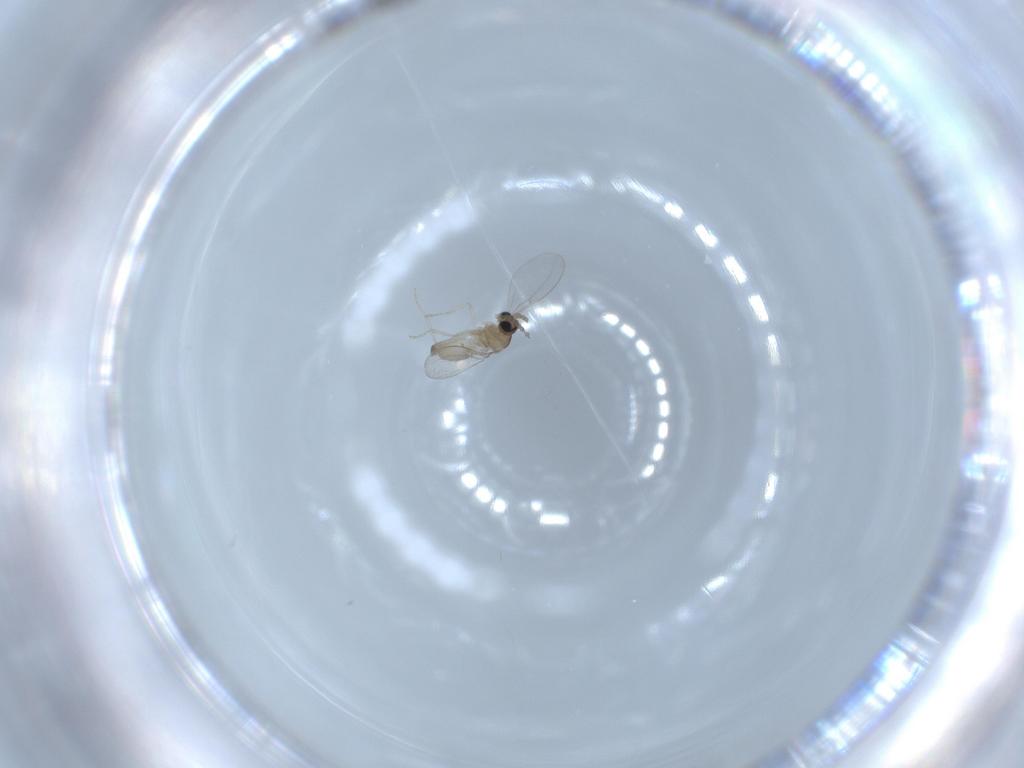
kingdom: Animalia
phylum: Arthropoda
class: Insecta
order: Diptera
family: Cecidomyiidae
